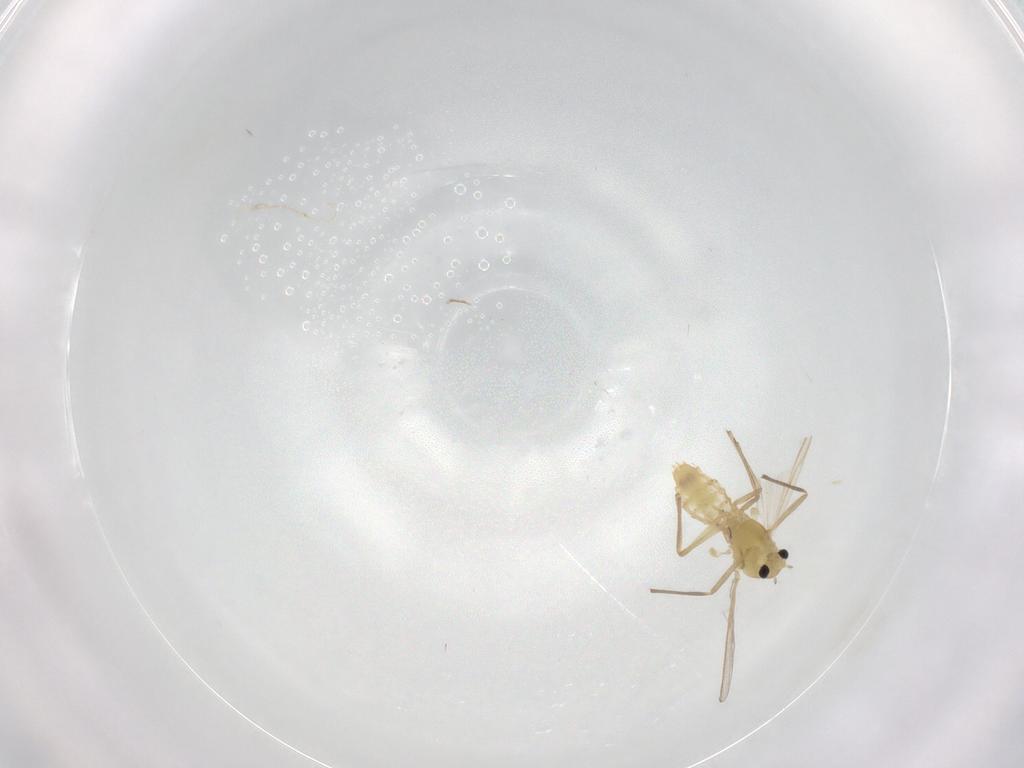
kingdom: Animalia
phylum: Arthropoda
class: Insecta
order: Diptera
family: Chironomidae
